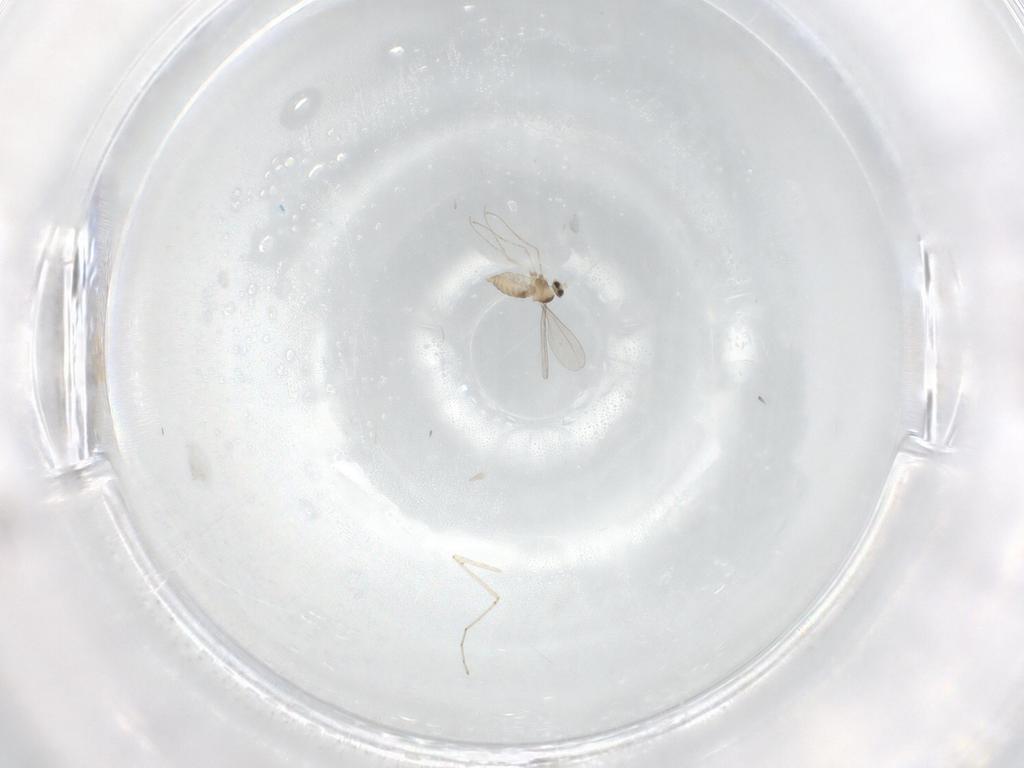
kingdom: Animalia
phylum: Arthropoda
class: Insecta
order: Diptera
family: Cecidomyiidae
